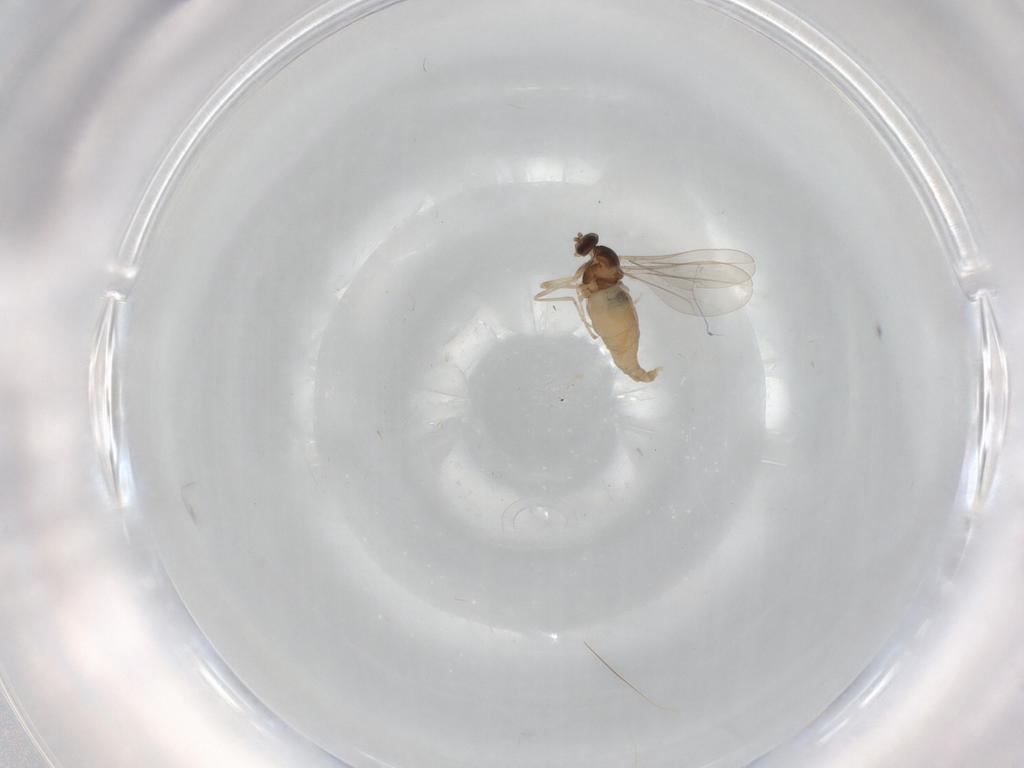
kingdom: Animalia
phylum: Arthropoda
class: Insecta
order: Diptera
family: Cecidomyiidae
